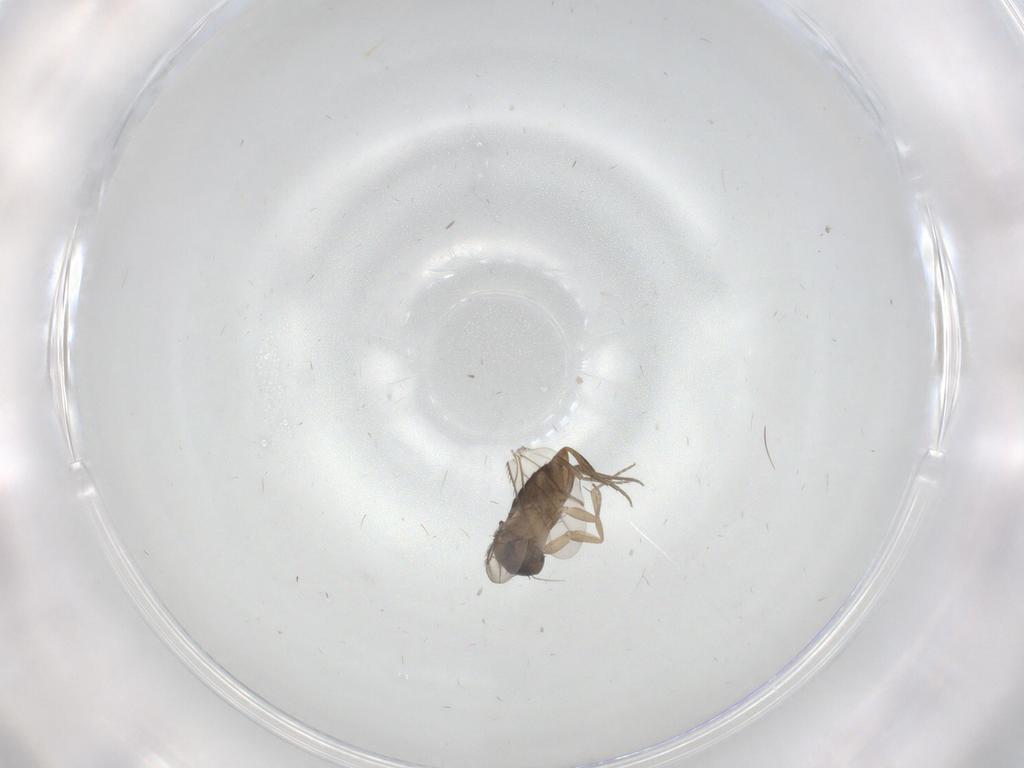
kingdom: Animalia
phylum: Arthropoda
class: Insecta
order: Diptera
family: Phoridae
